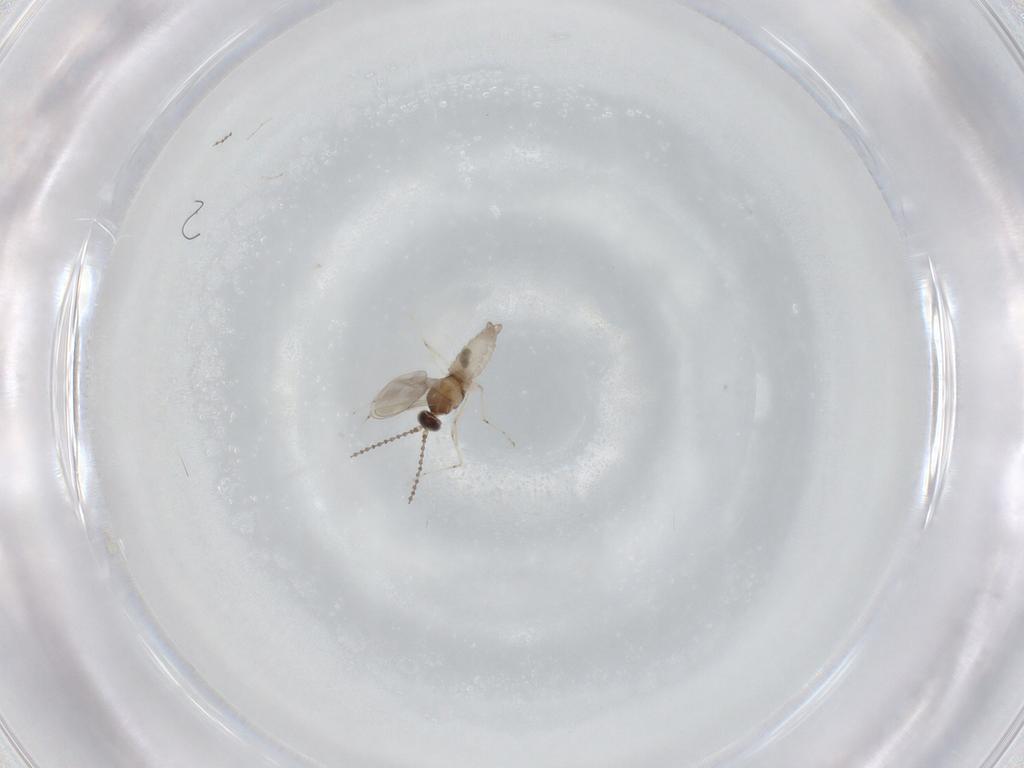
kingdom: Animalia
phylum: Arthropoda
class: Insecta
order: Diptera
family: Cecidomyiidae
